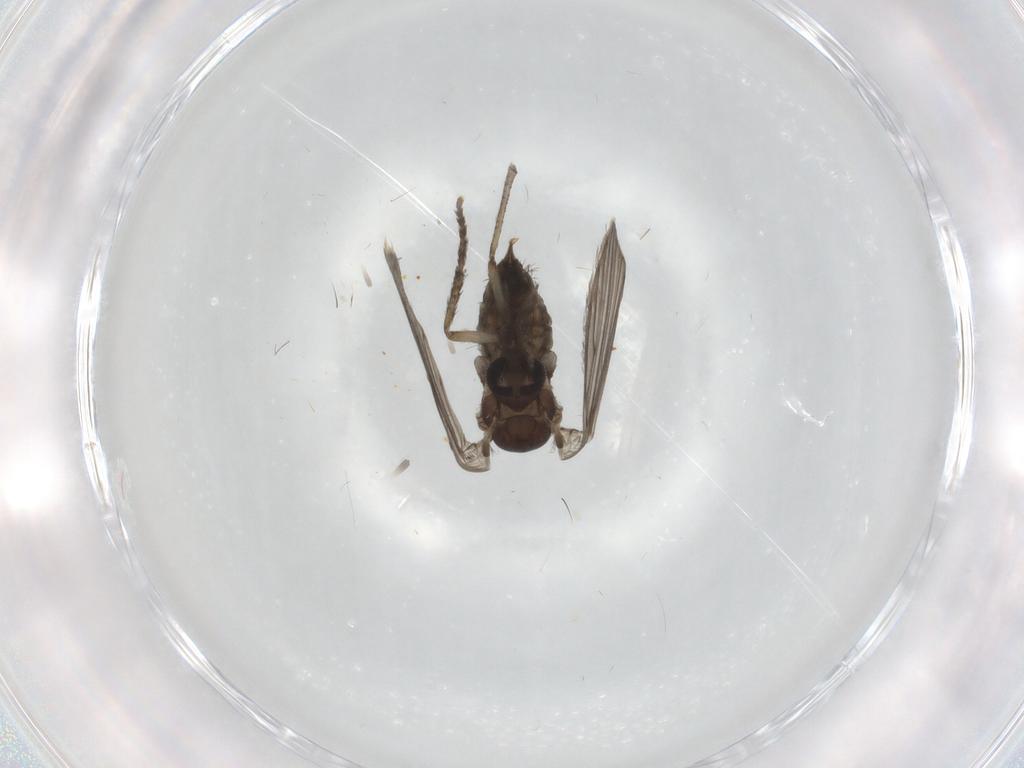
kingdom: Animalia
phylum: Arthropoda
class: Insecta
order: Diptera
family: Psychodidae
